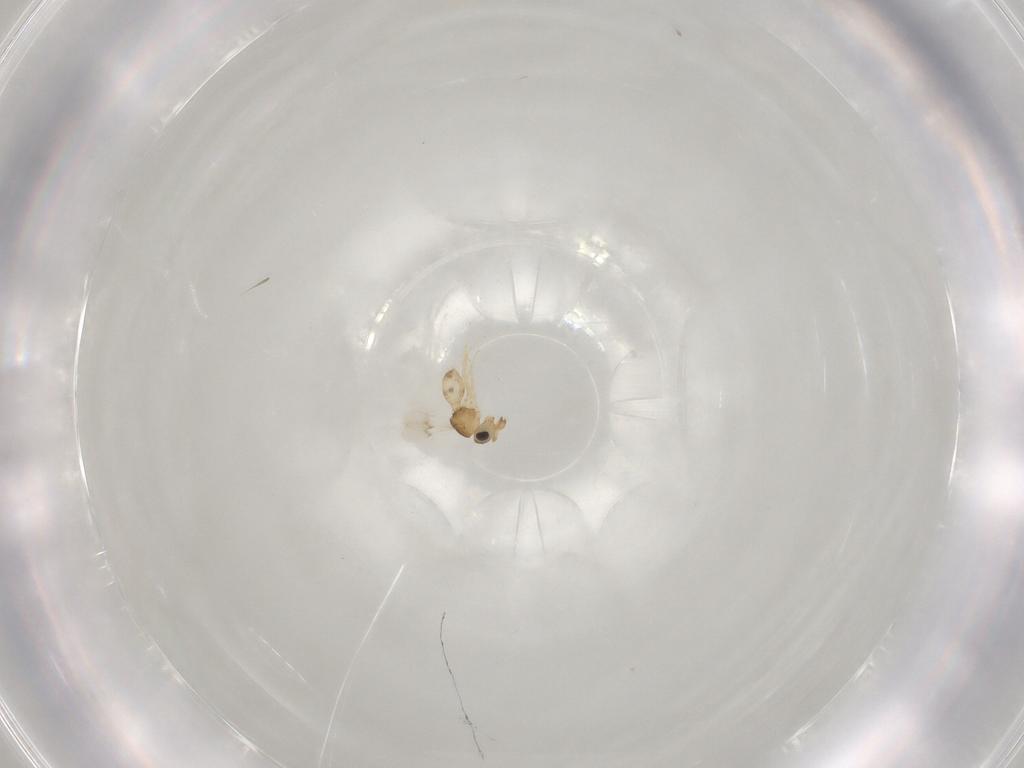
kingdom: Animalia
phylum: Arthropoda
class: Insecta
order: Hymenoptera
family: Scelionidae
